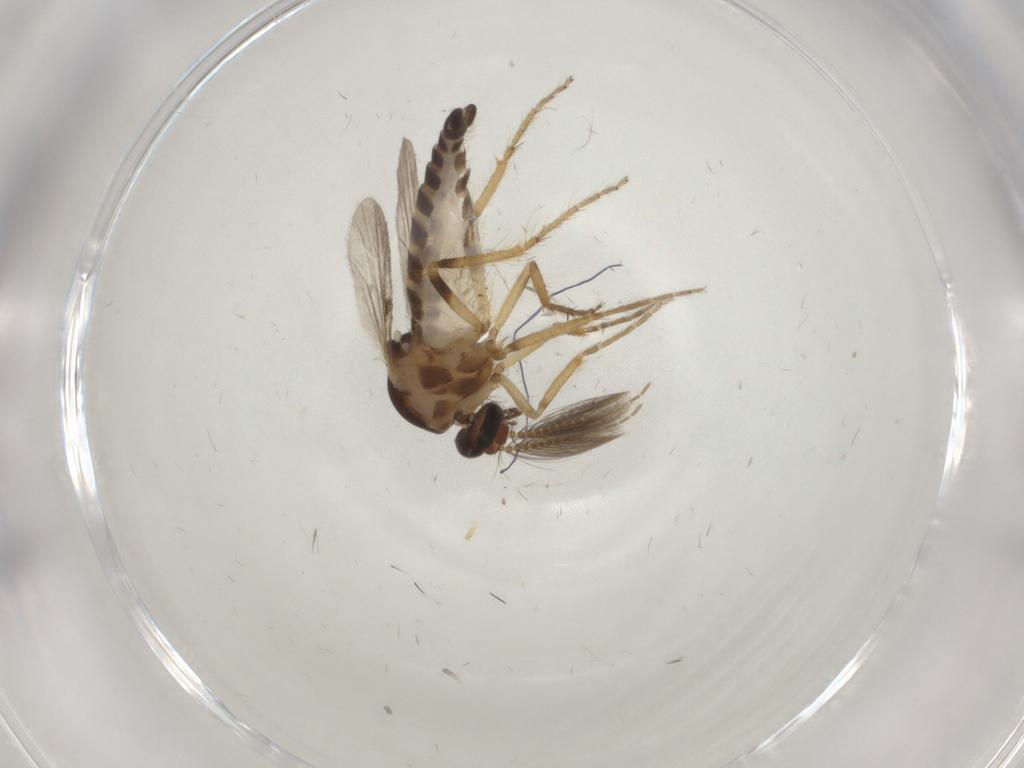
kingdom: Animalia
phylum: Arthropoda
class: Insecta
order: Diptera
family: Ceratopogonidae
